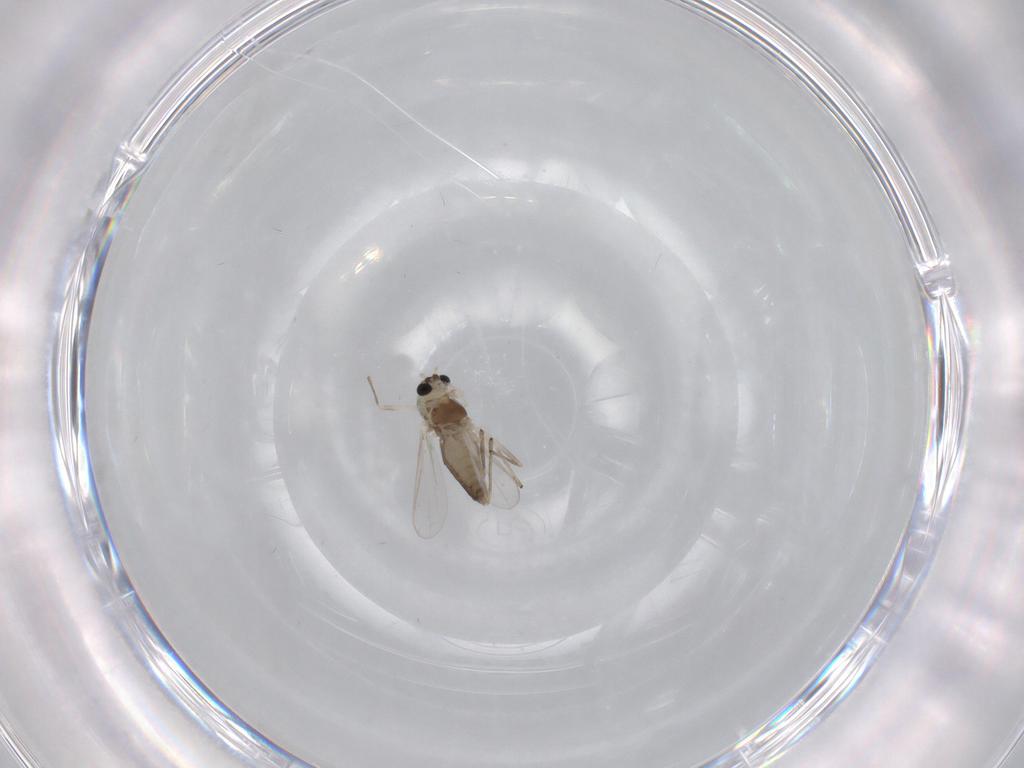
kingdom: Animalia
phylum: Arthropoda
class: Insecta
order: Diptera
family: Chironomidae
